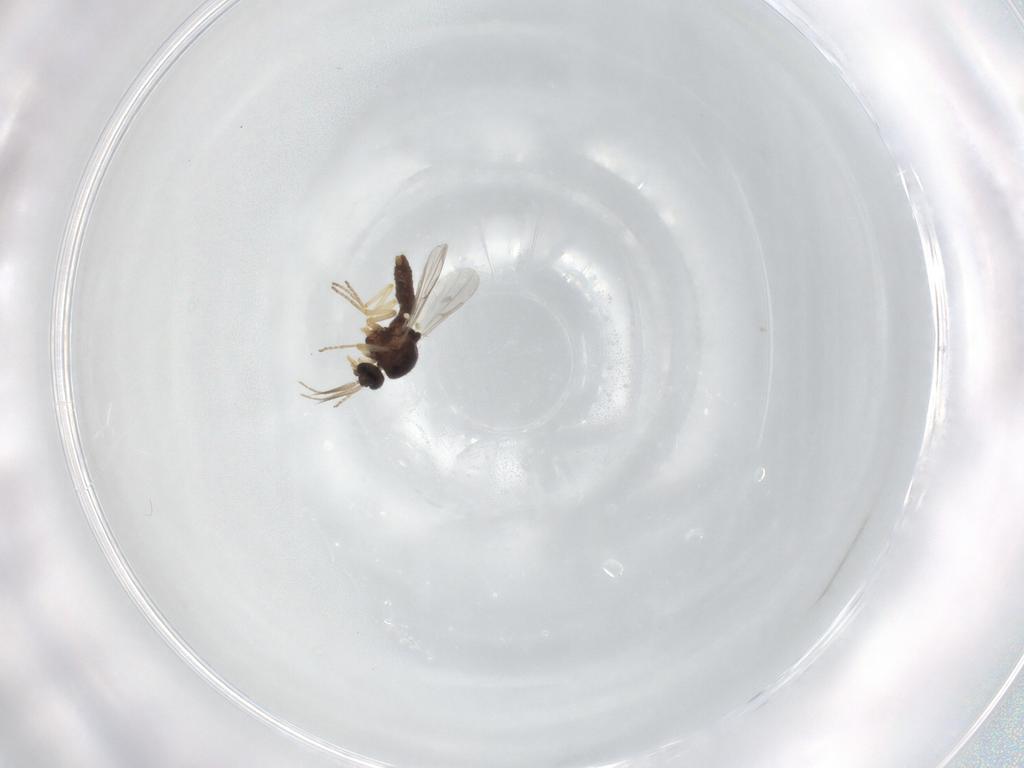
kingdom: Animalia
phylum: Arthropoda
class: Insecta
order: Diptera
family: Ceratopogonidae
